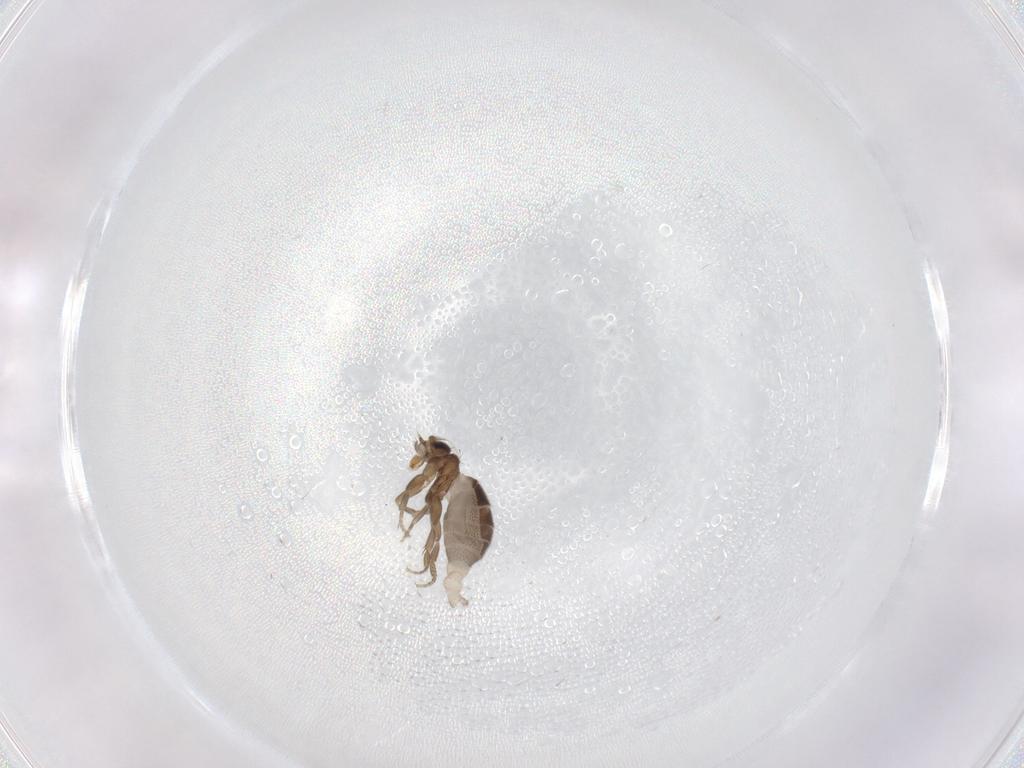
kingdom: Animalia
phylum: Arthropoda
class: Insecta
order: Diptera
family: Phoridae
